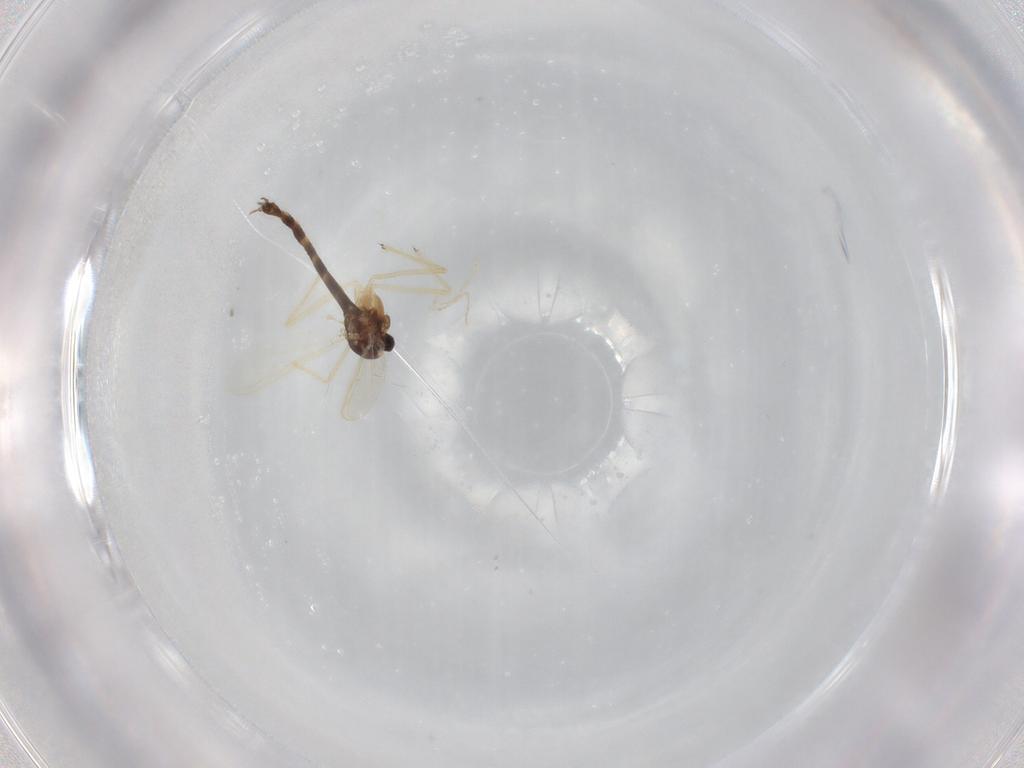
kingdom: Animalia
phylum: Arthropoda
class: Insecta
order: Diptera
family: Chironomidae
